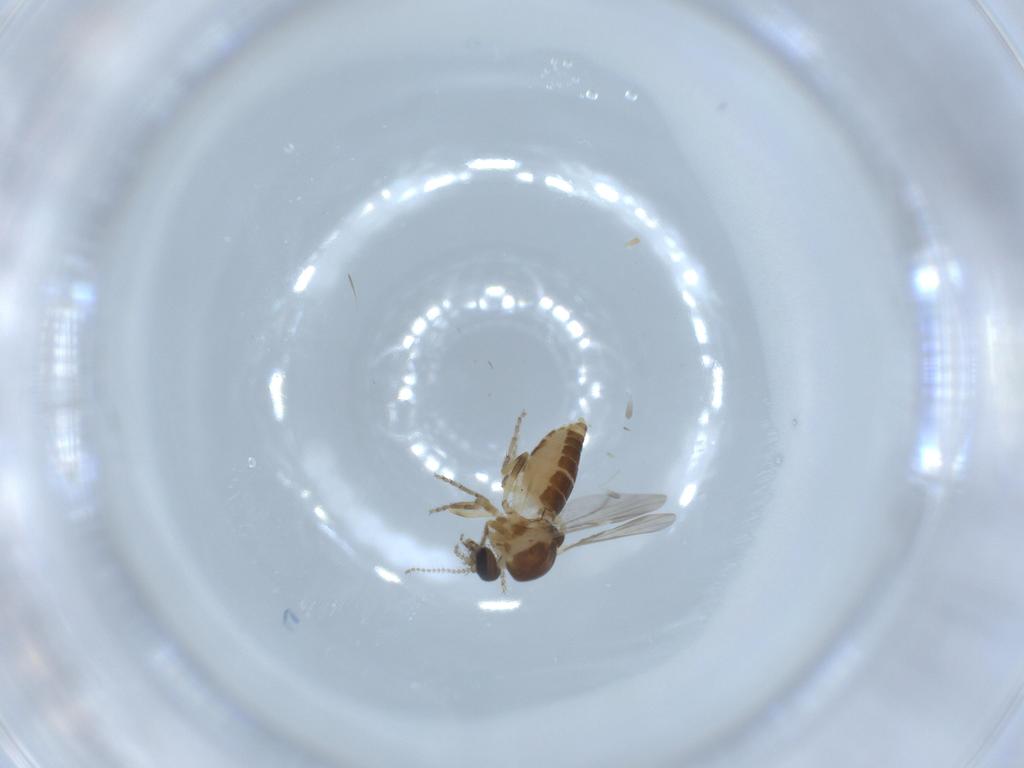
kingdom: Animalia
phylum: Arthropoda
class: Insecta
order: Diptera
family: Ceratopogonidae
